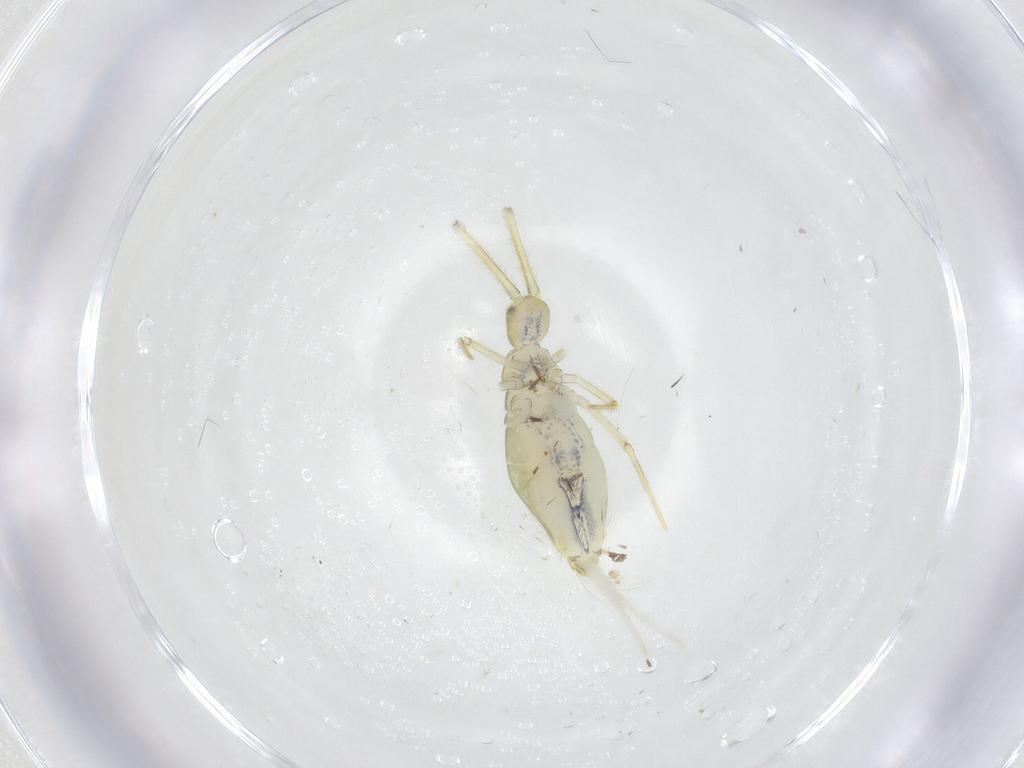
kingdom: Animalia
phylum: Arthropoda
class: Collembola
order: Entomobryomorpha
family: Paronellidae
